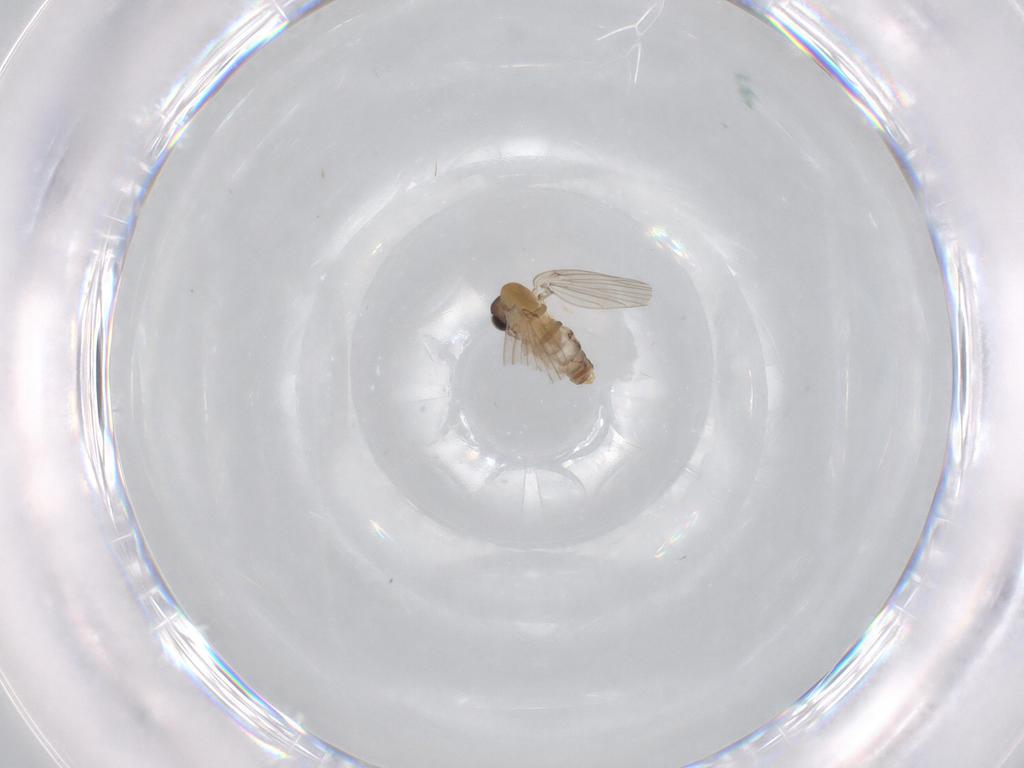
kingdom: Animalia
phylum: Arthropoda
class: Insecta
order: Diptera
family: Psychodidae
